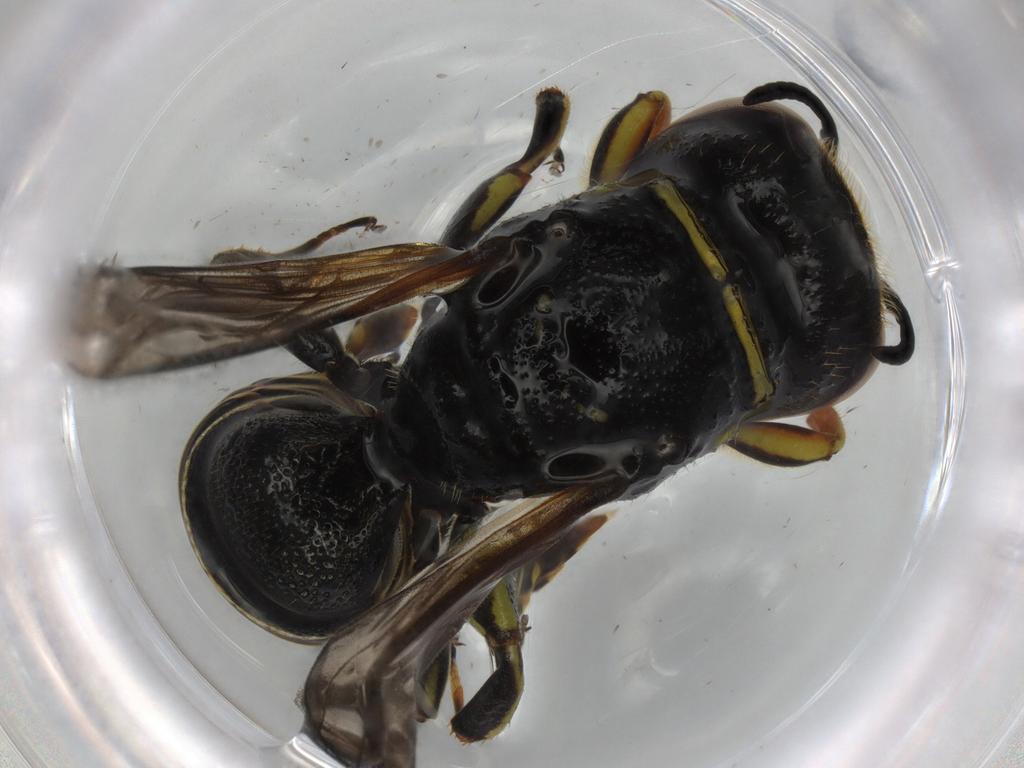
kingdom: Animalia
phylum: Arthropoda
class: Insecta
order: Hymenoptera
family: Crabronidae
